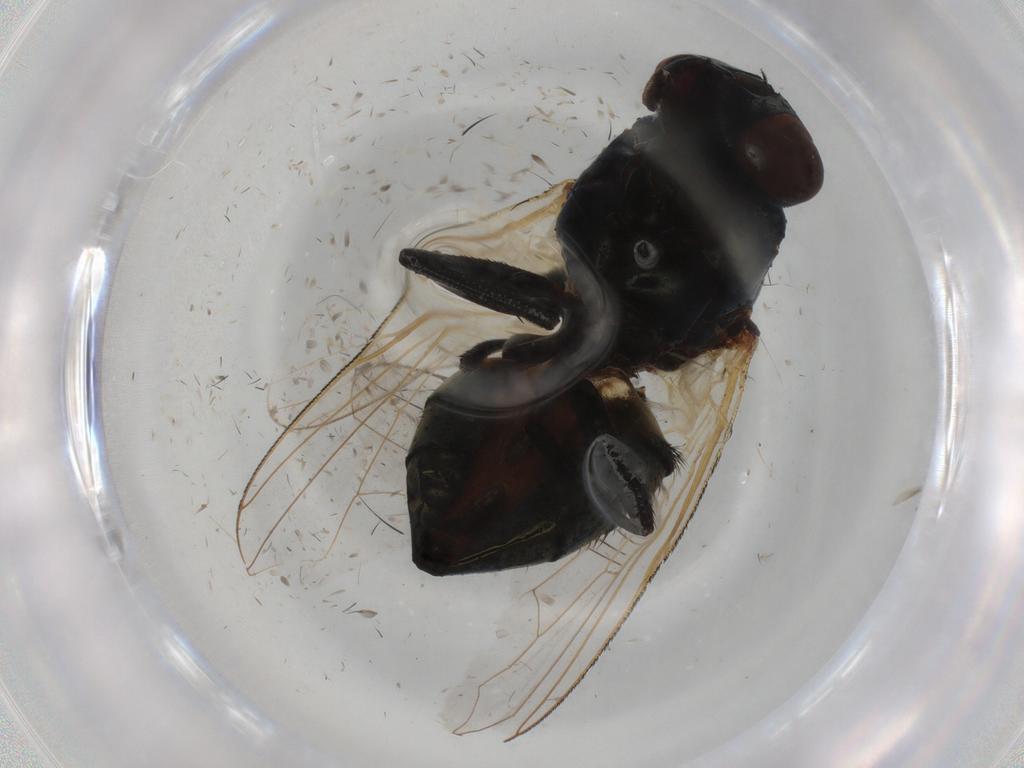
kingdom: Animalia
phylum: Arthropoda
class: Insecta
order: Diptera
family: Muscidae
